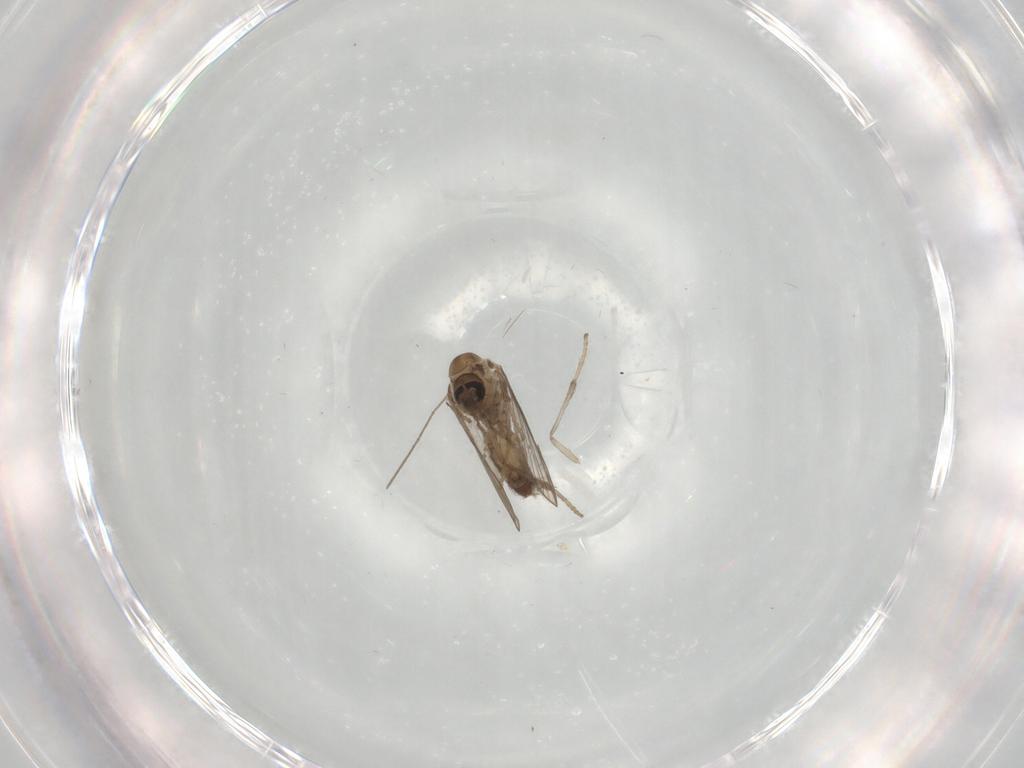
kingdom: Animalia
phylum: Arthropoda
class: Insecta
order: Diptera
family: Psychodidae
